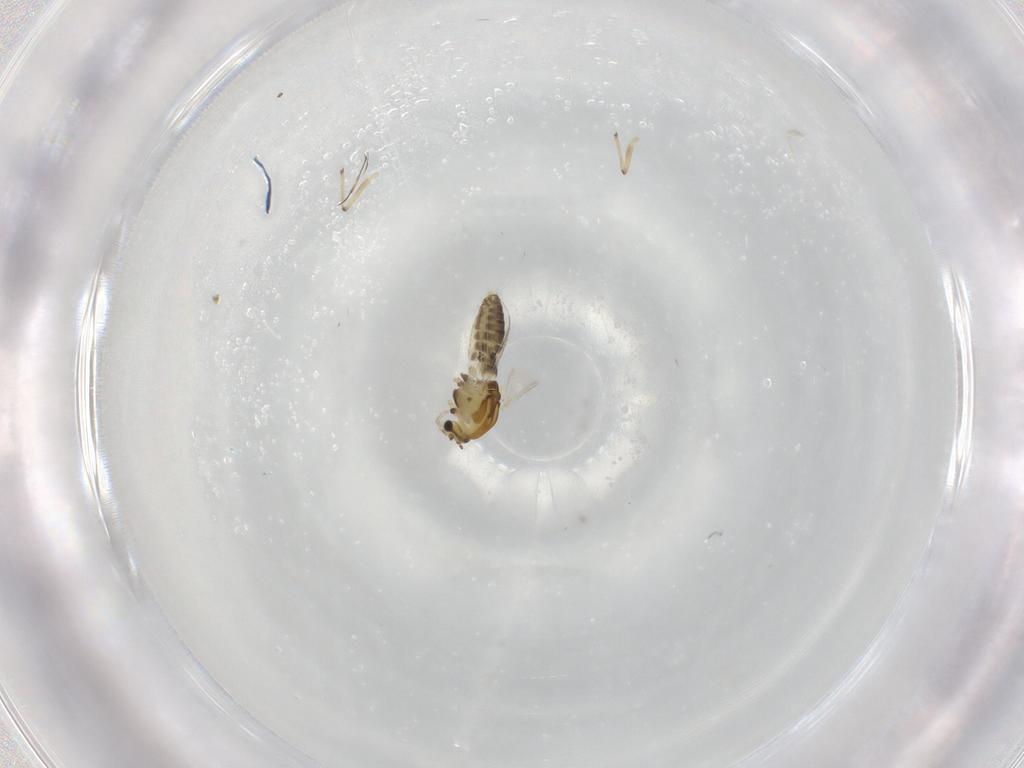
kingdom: Animalia
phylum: Arthropoda
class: Insecta
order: Diptera
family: Chironomidae
